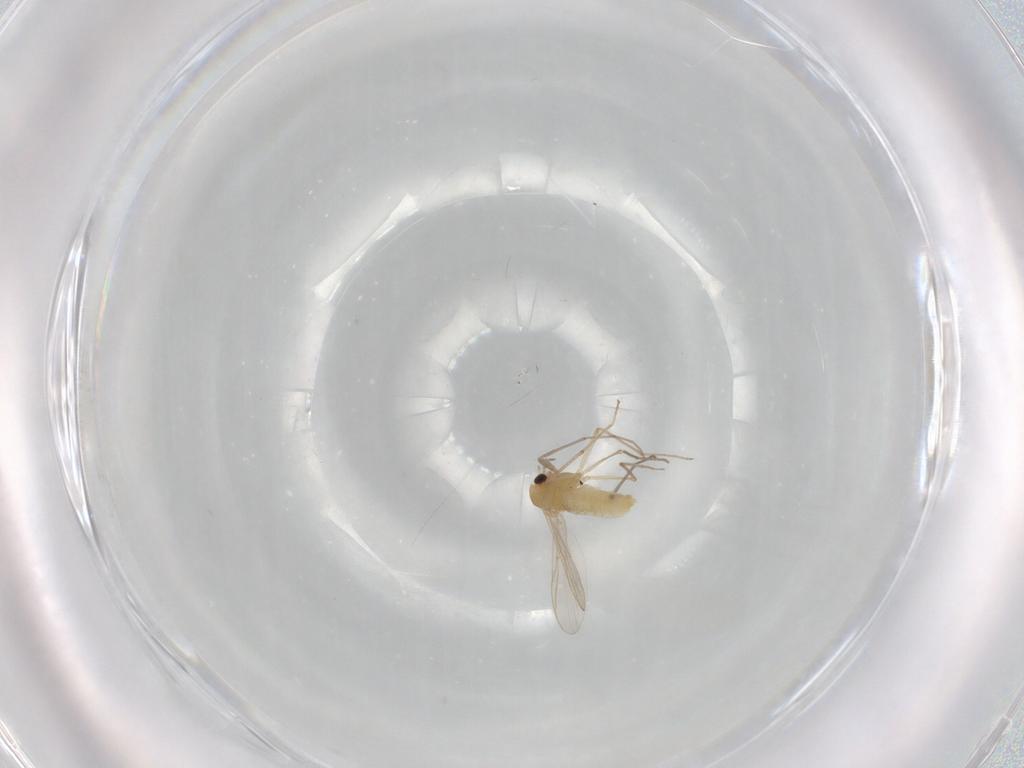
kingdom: Animalia
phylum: Arthropoda
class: Insecta
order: Diptera
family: Chironomidae
